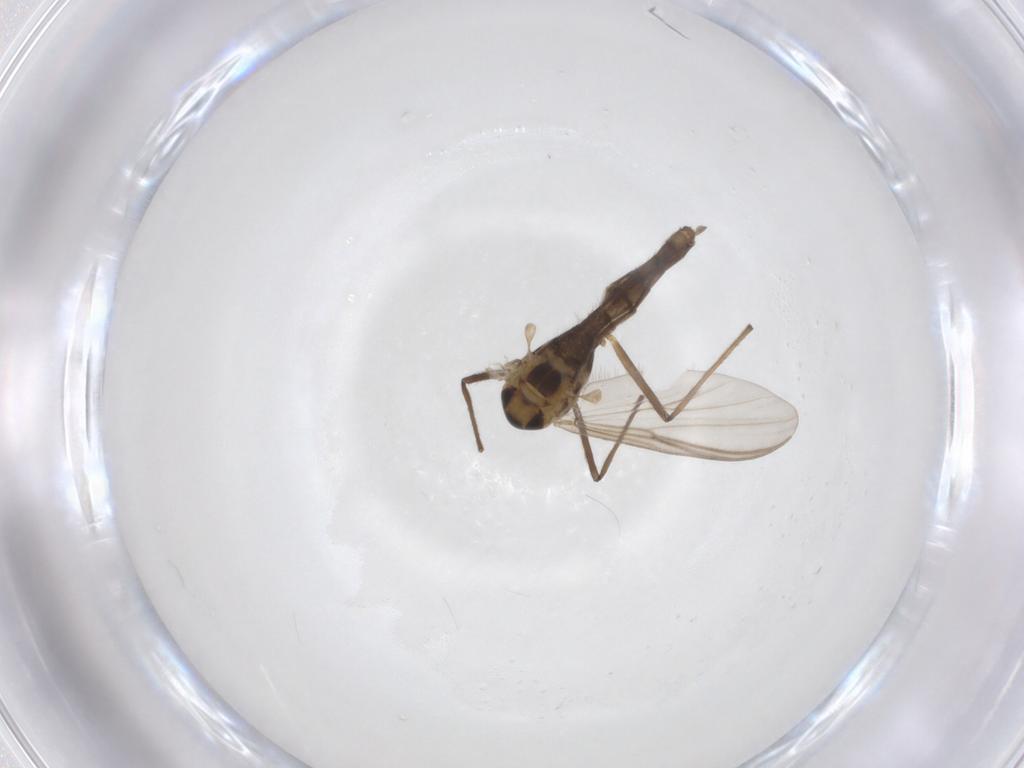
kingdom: Animalia
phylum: Arthropoda
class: Insecta
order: Diptera
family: Chironomidae
